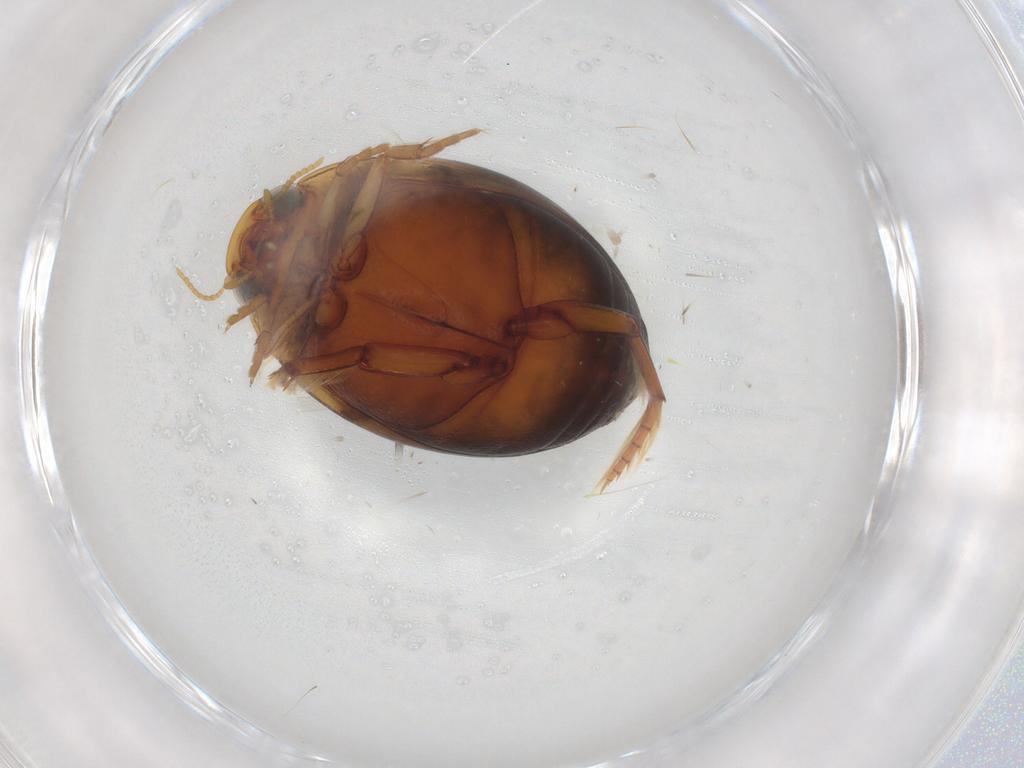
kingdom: Animalia
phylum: Arthropoda
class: Insecta
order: Coleoptera
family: Dytiscidae
